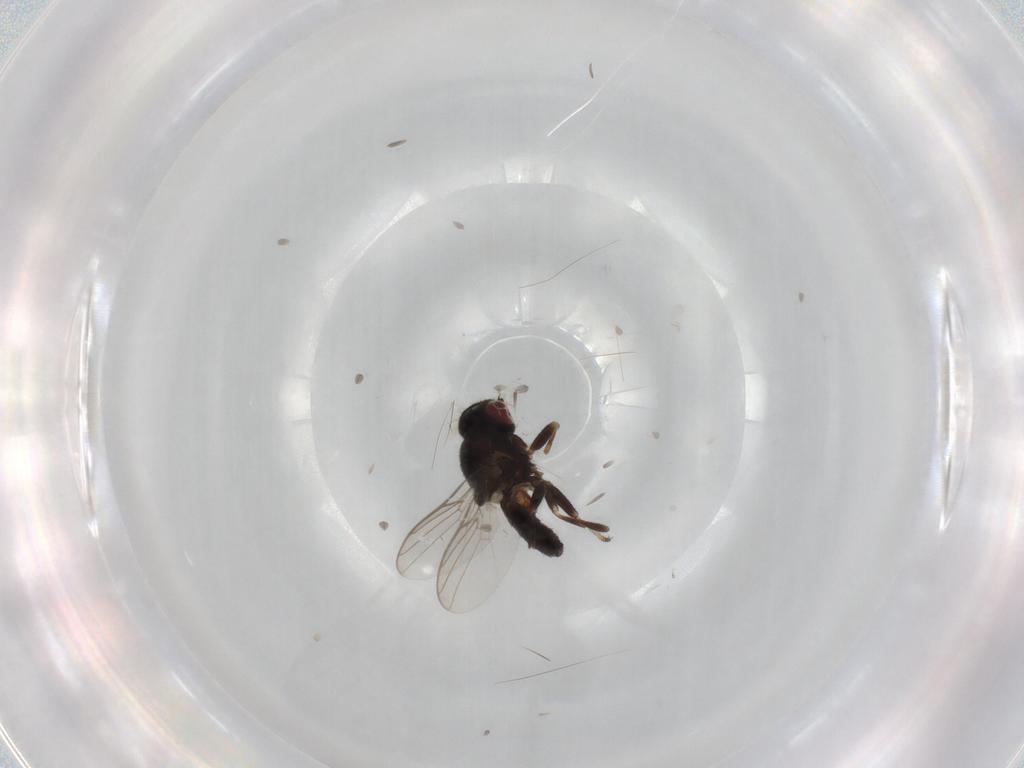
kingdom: Animalia
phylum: Arthropoda
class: Insecta
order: Diptera
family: Chloropidae
